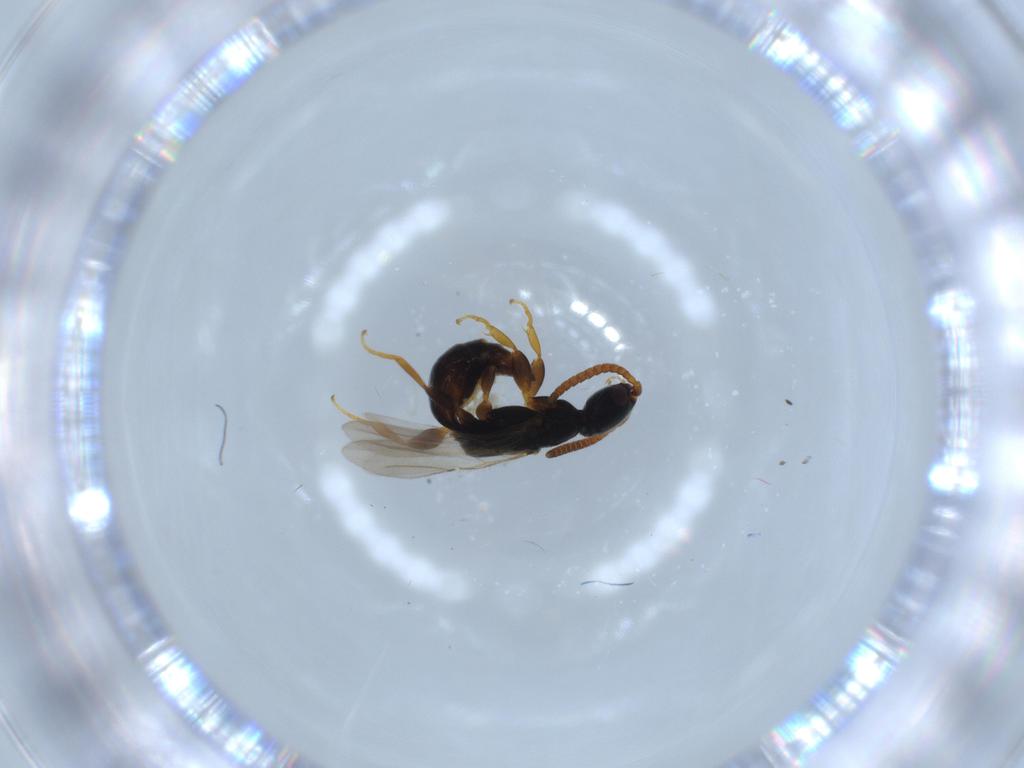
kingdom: Animalia
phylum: Arthropoda
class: Insecta
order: Hymenoptera
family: Bethylidae
